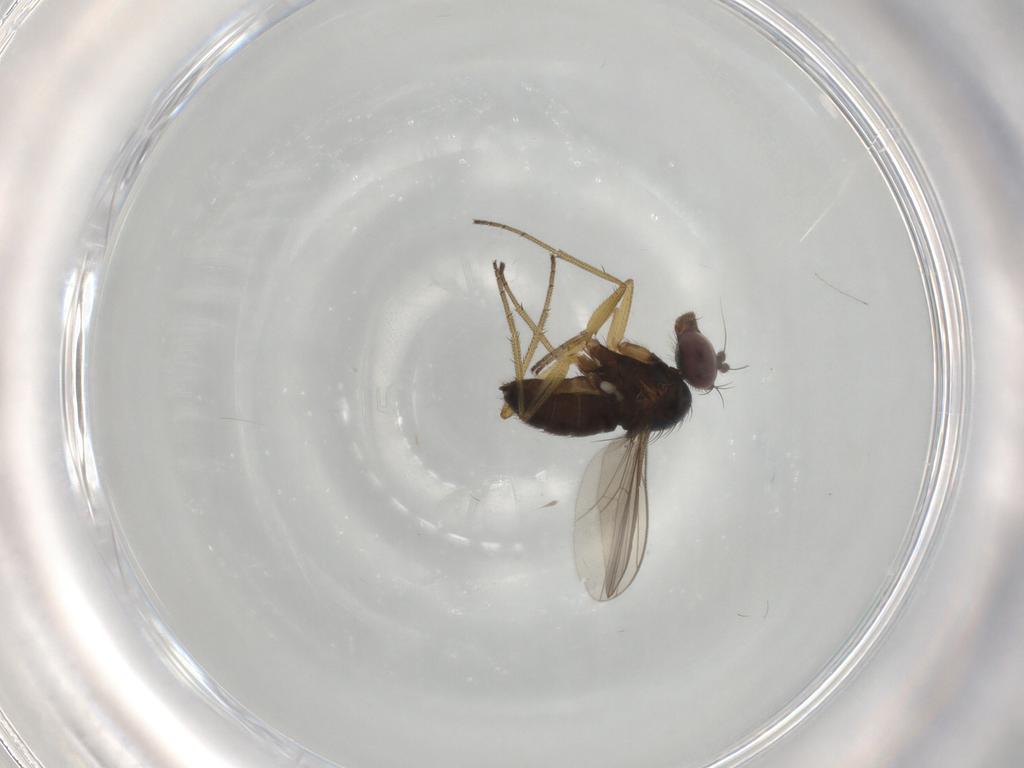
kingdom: Animalia
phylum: Arthropoda
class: Insecta
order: Diptera
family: Dolichopodidae
